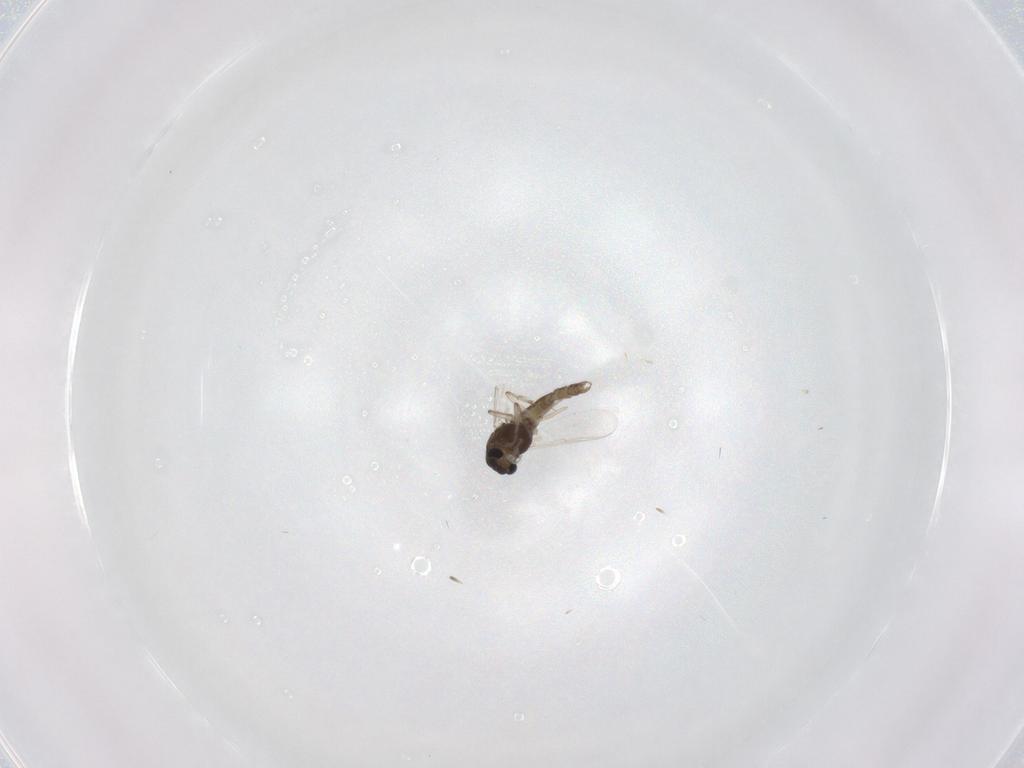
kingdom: Animalia
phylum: Arthropoda
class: Insecta
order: Diptera
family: Chironomidae
